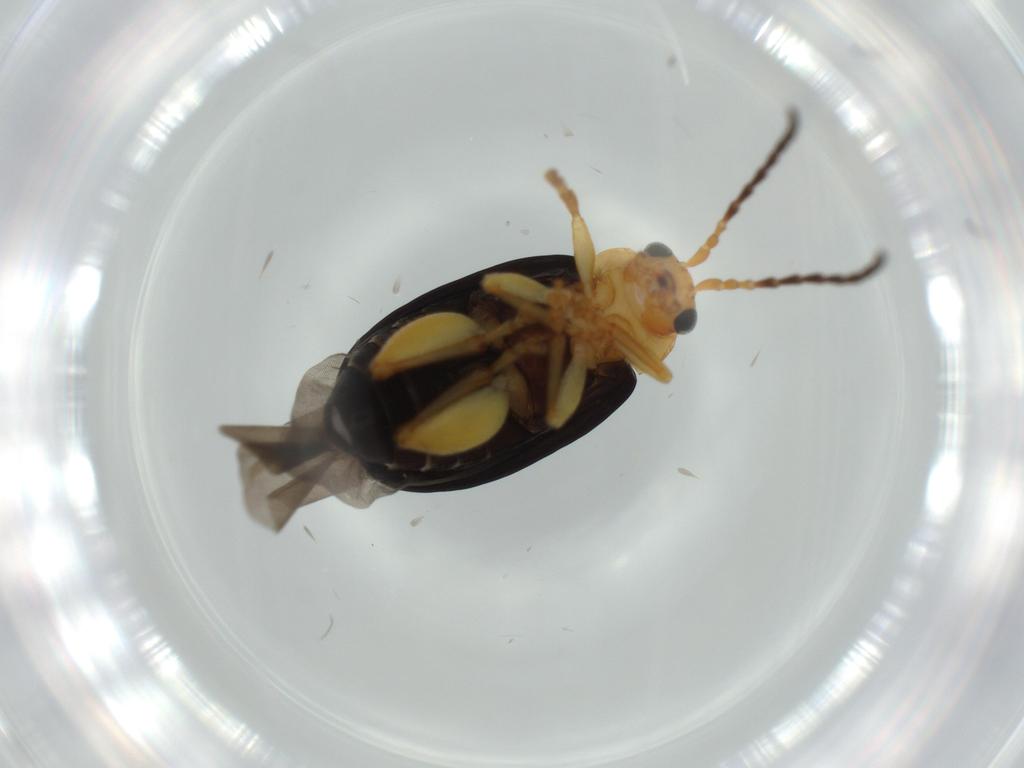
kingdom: Animalia
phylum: Arthropoda
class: Insecta
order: Coleoptera
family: Chrysomelidae
